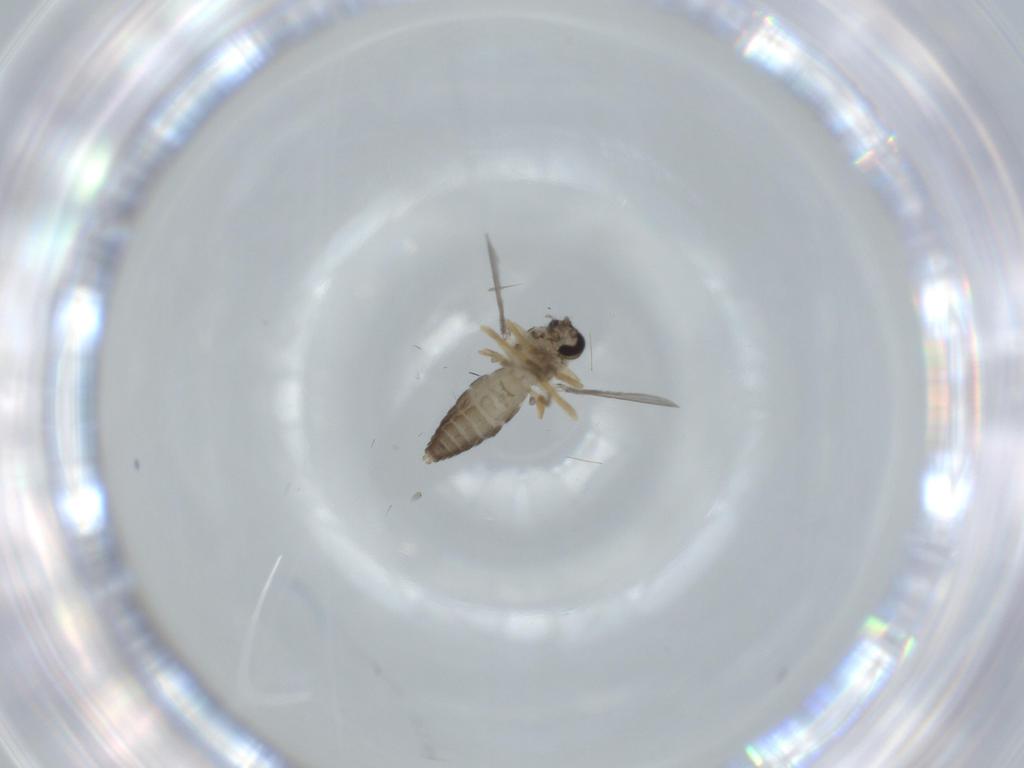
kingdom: Animalia
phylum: Arthropoda
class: Insecta
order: Diptera
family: Ceratopogonidae
